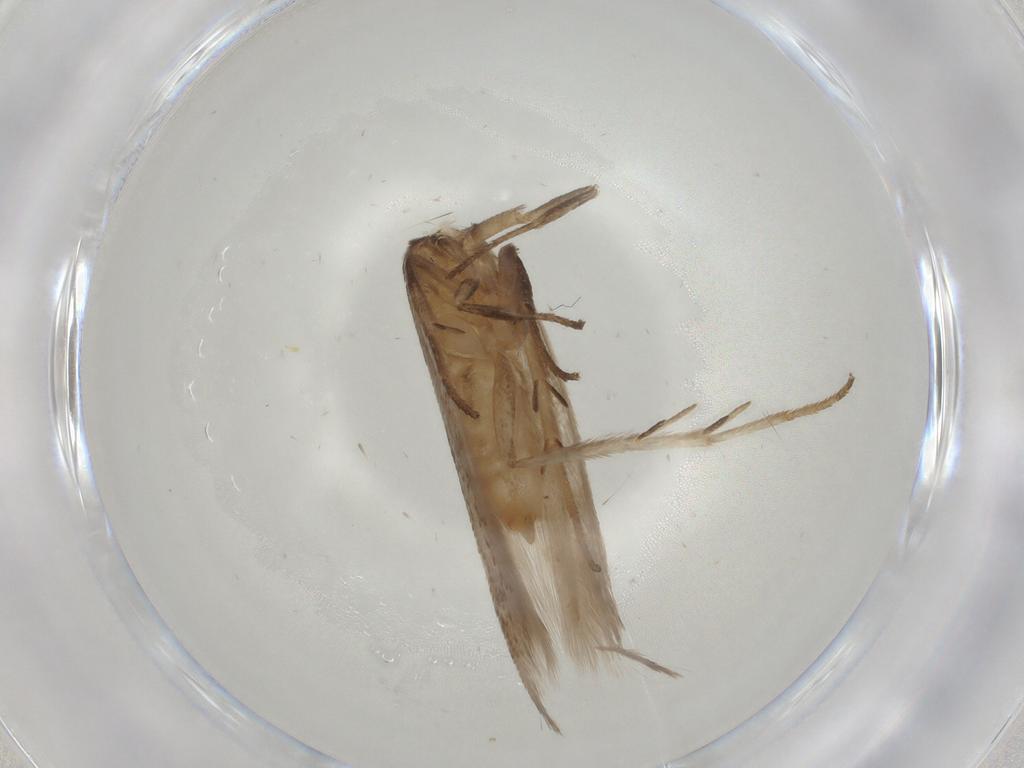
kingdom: Animalia
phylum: Arthropoda
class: Insecta
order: Lepidoptera
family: Gelechiidae
